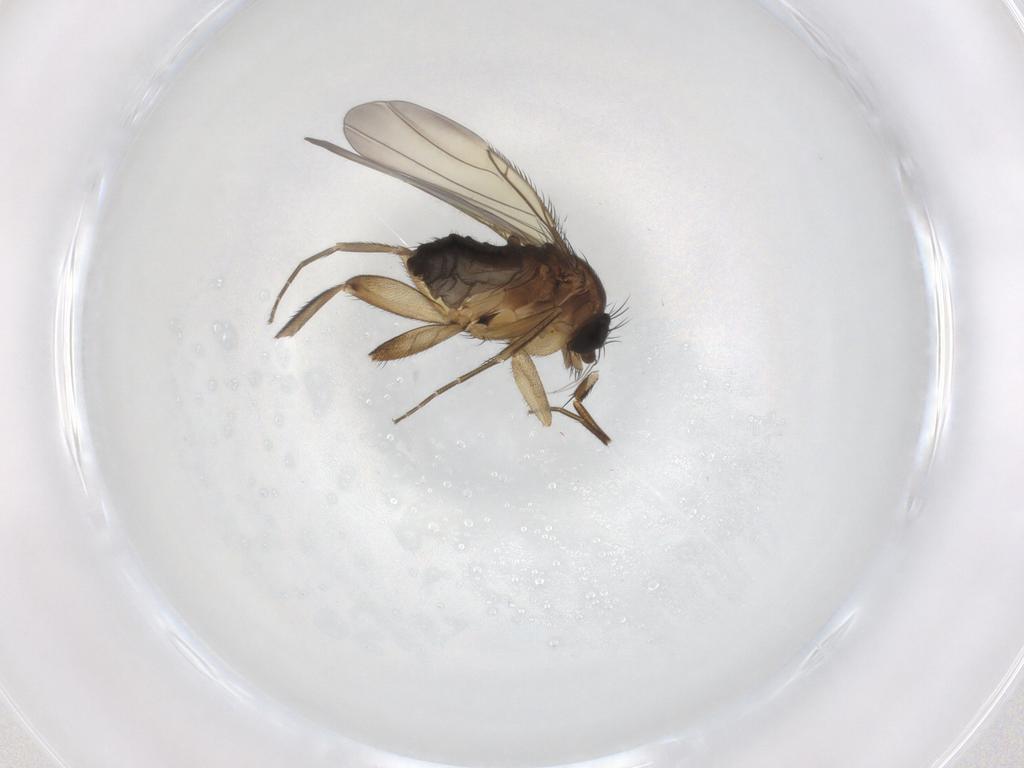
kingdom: Animalia
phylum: Arthropoda
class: Insecta
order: Diptera
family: Phoridae
